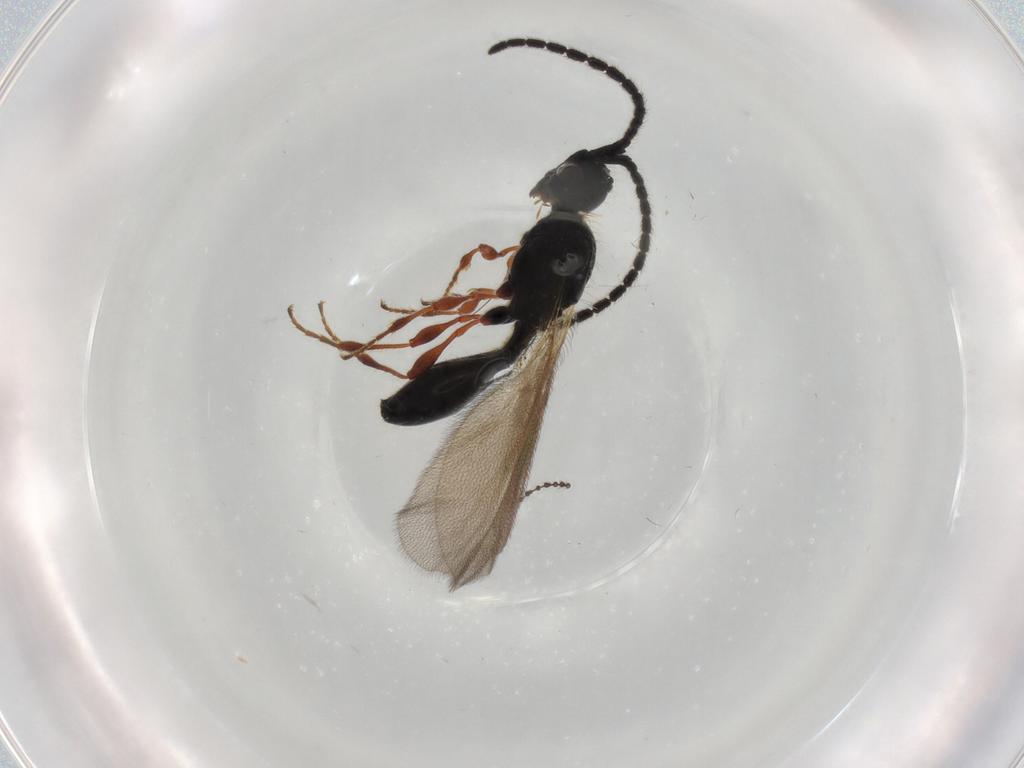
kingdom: Animalia
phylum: Arthropoda
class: Insecta
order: Hymenoptera
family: Diapriidae
